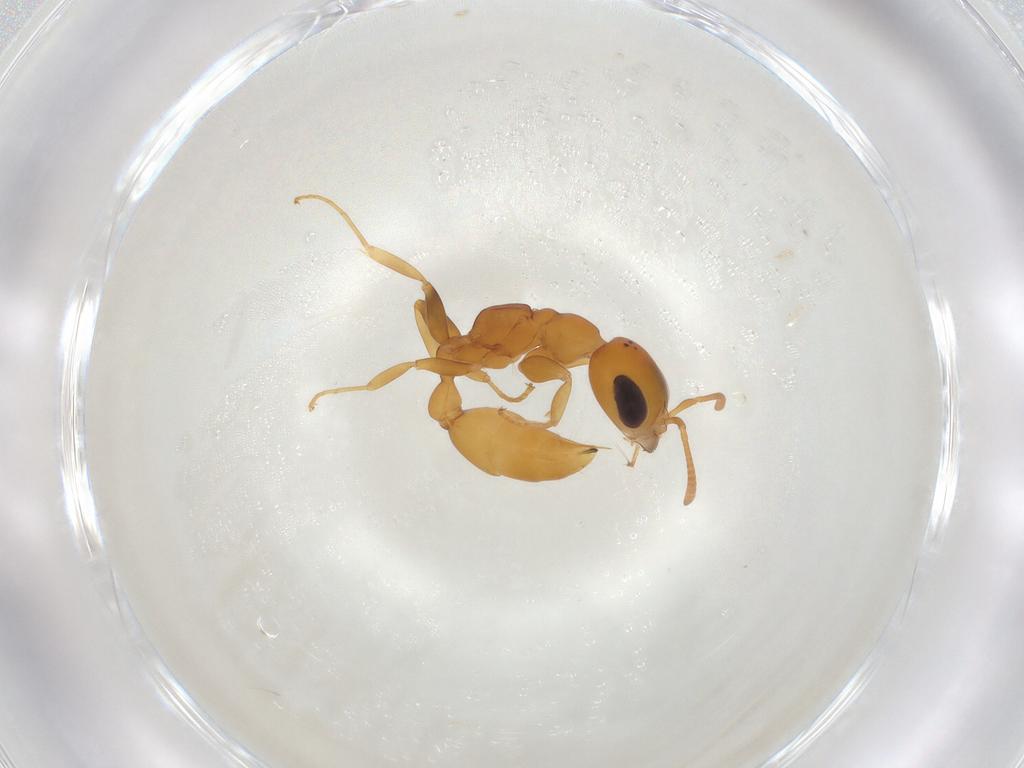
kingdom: Animalia
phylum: Arthropoda
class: Insecta
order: Hymenoptera
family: Formicidae
